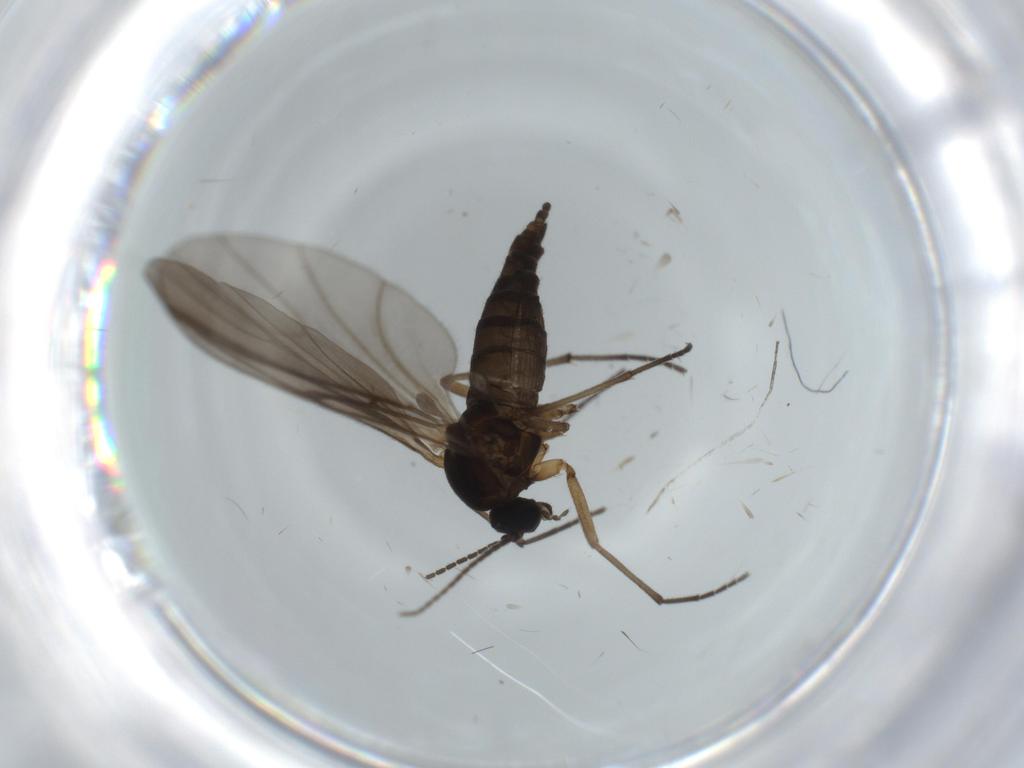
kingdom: Animalia
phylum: Arthropoda
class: Insecta
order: Diptera
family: Sciaridae
